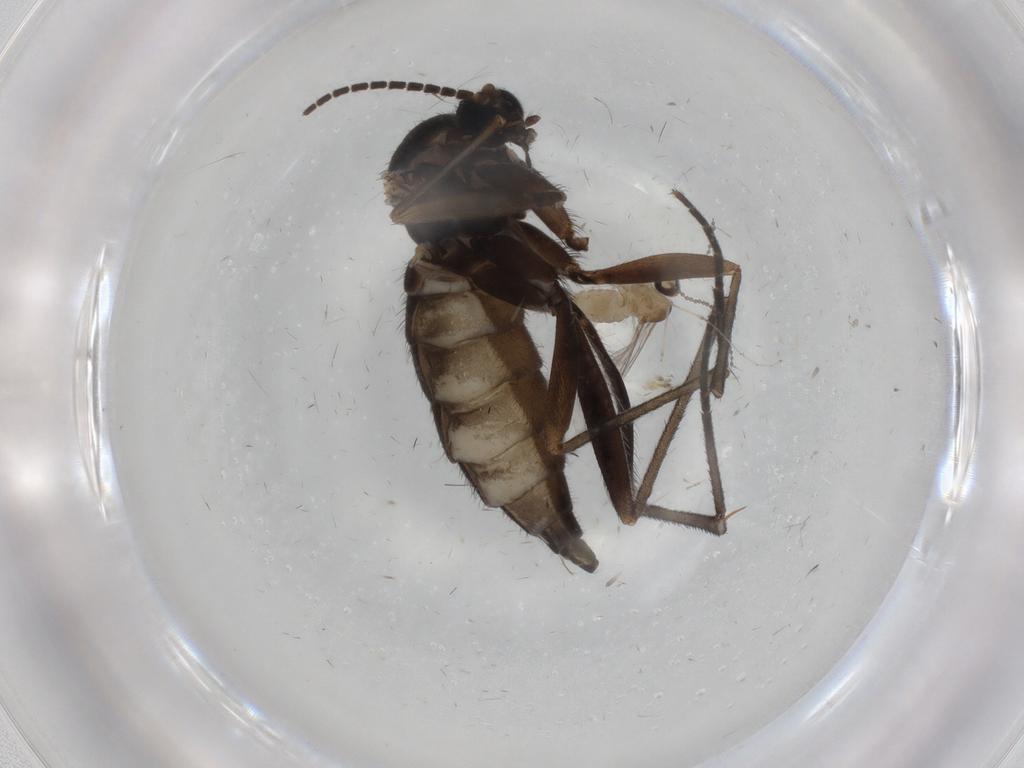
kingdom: Animalia
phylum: Arthropoda
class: Insecta
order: Diptera
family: Sciaridae
